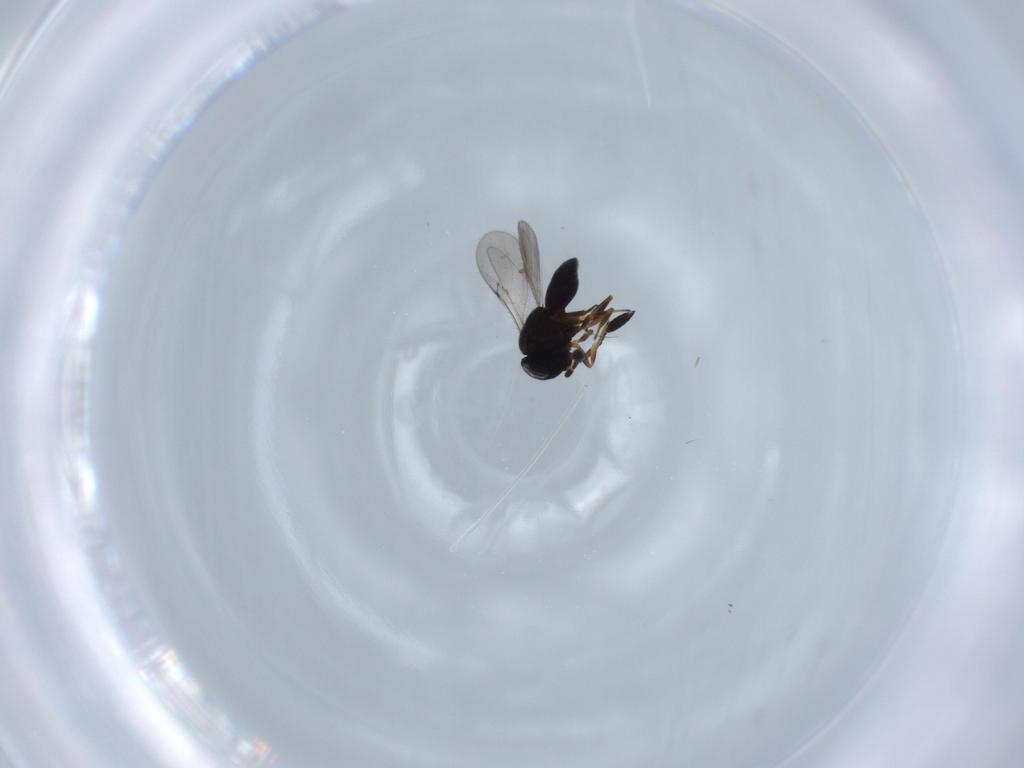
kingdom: Animalia
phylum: Arthropoda
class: Insecta
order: Hymenoptera
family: Scelionidae
